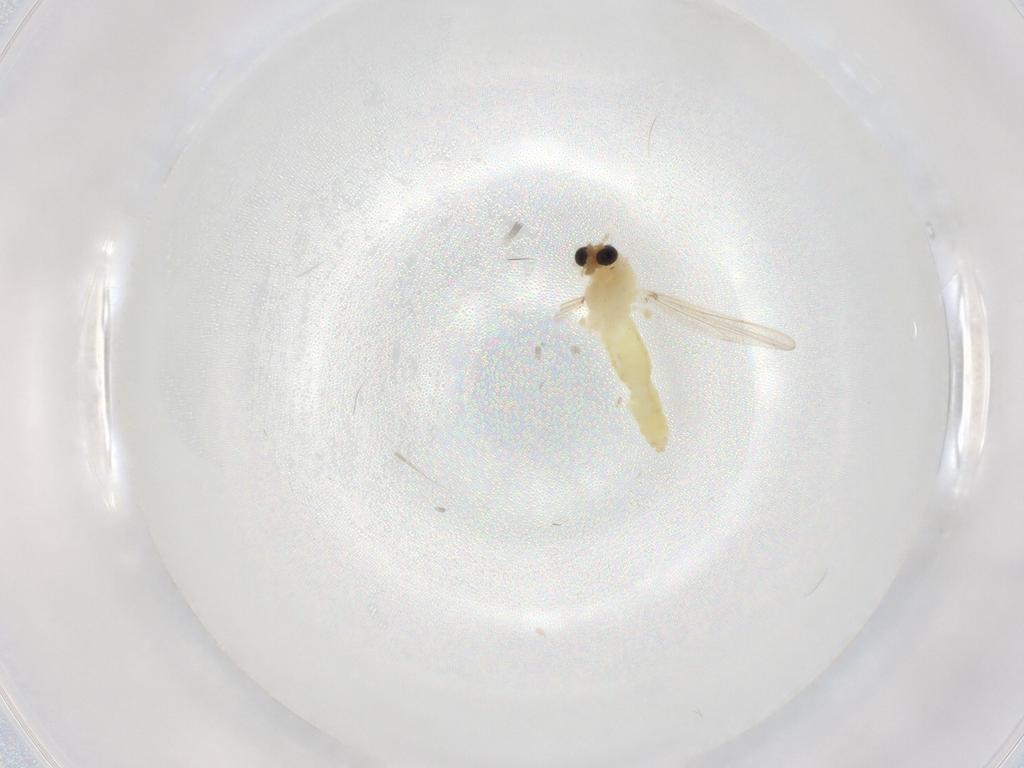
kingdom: Animalia
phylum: Arthropoda
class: Insecta
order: Diptera
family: Chironomidae
